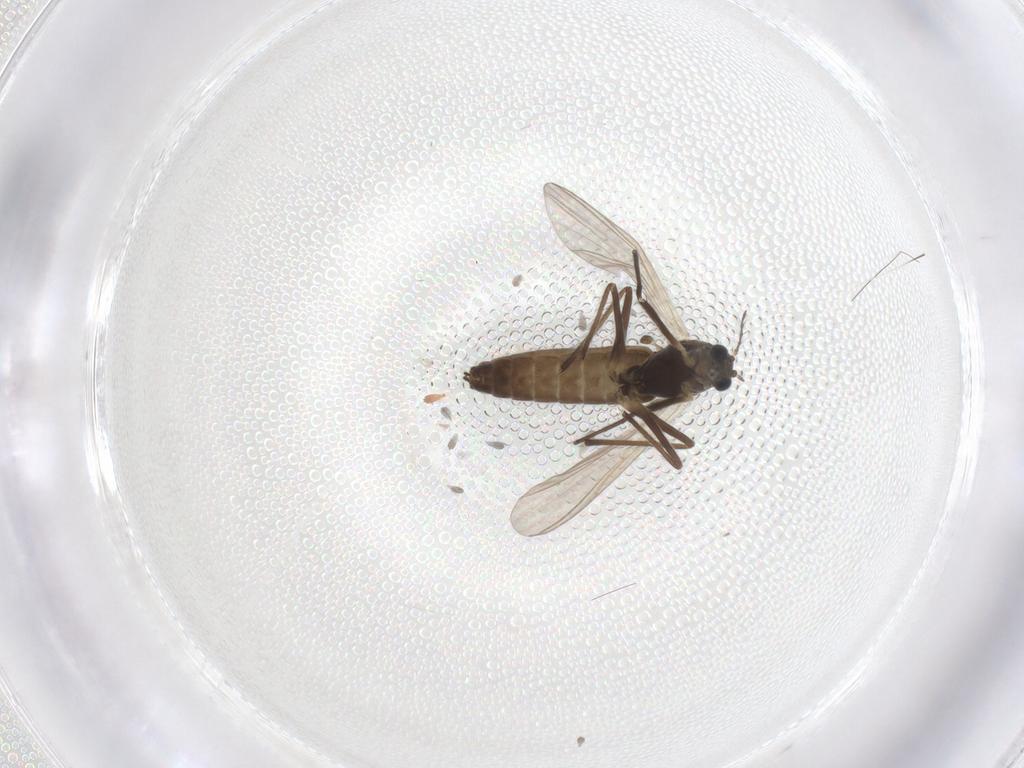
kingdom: Animalia
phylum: Arthropoda
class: Insecta
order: Diptera
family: Chironomidae
